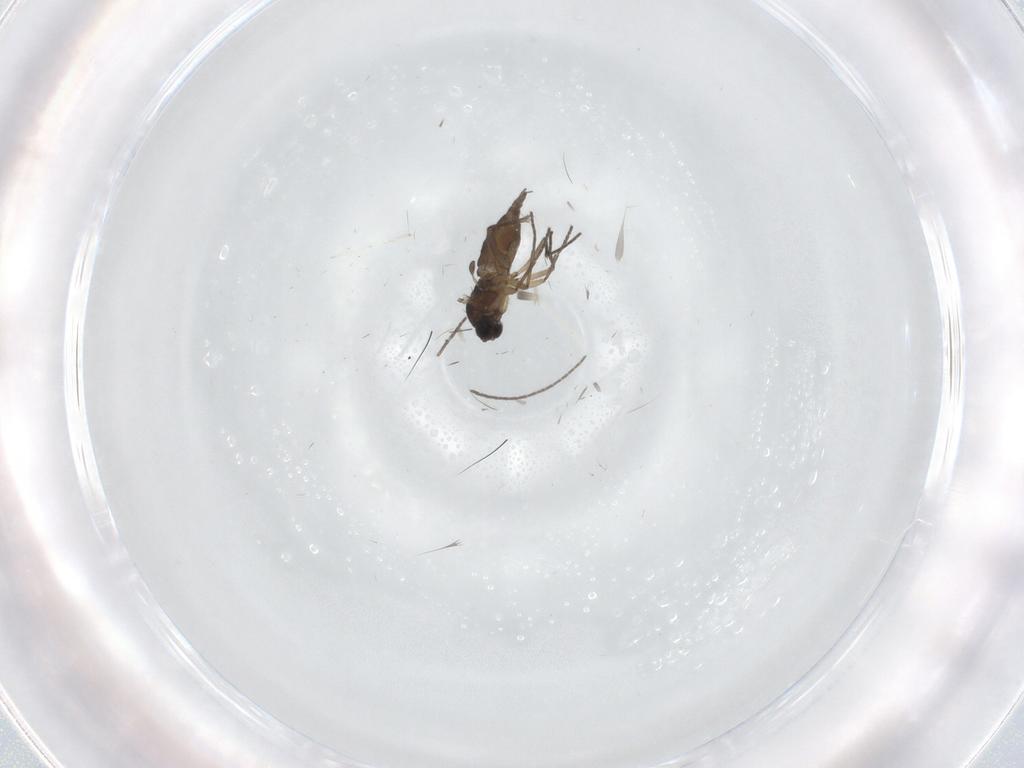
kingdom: Animalia
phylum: Arthropoda
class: Insecta
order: Diptera
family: Sciaridae
